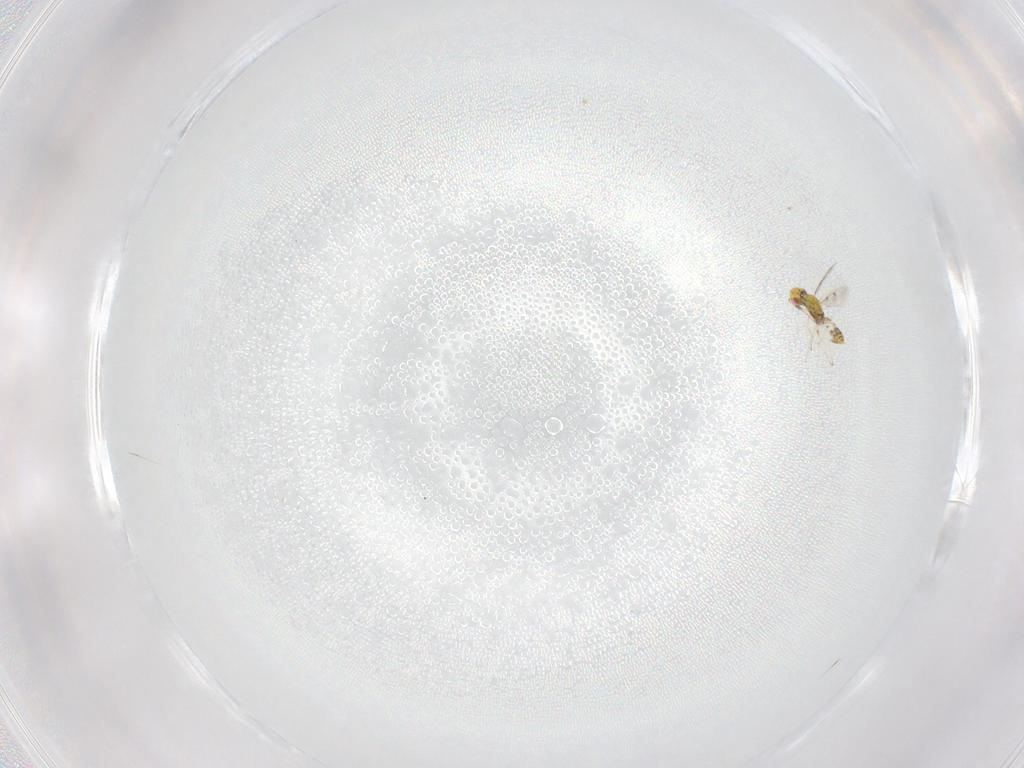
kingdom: Animalia
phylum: Arthropoda
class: Insecta
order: Hymenoptera
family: Eulophidae
